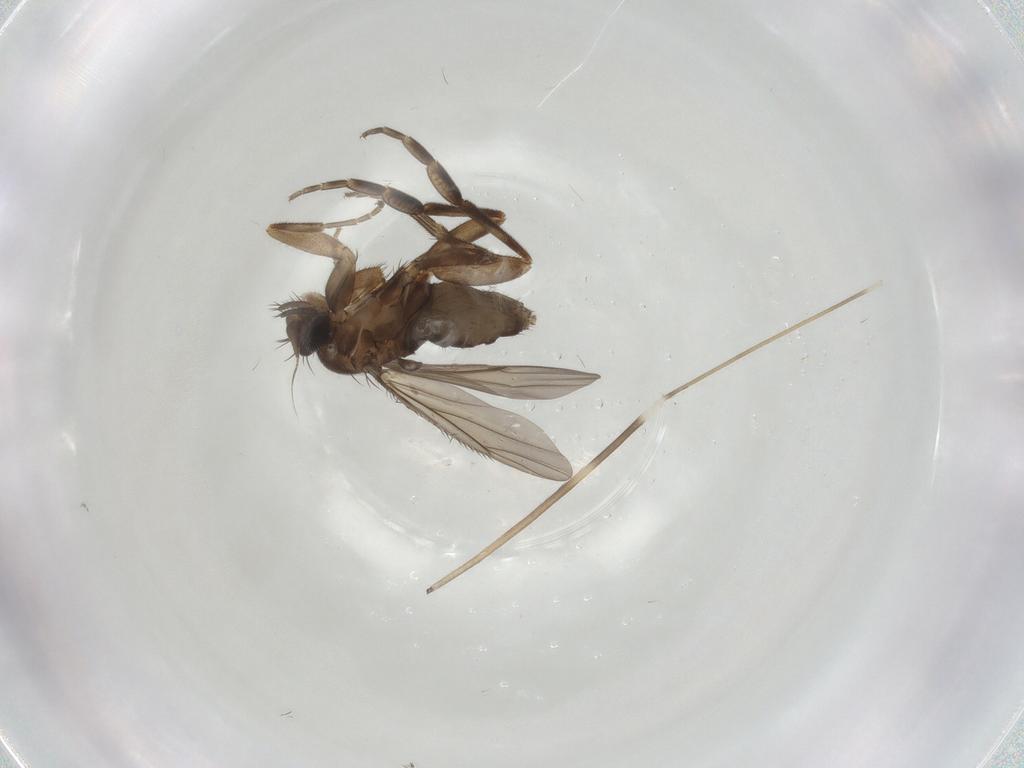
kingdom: Animalia
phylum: Arthropoda
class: Insecta
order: Diptera
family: Phoridae
